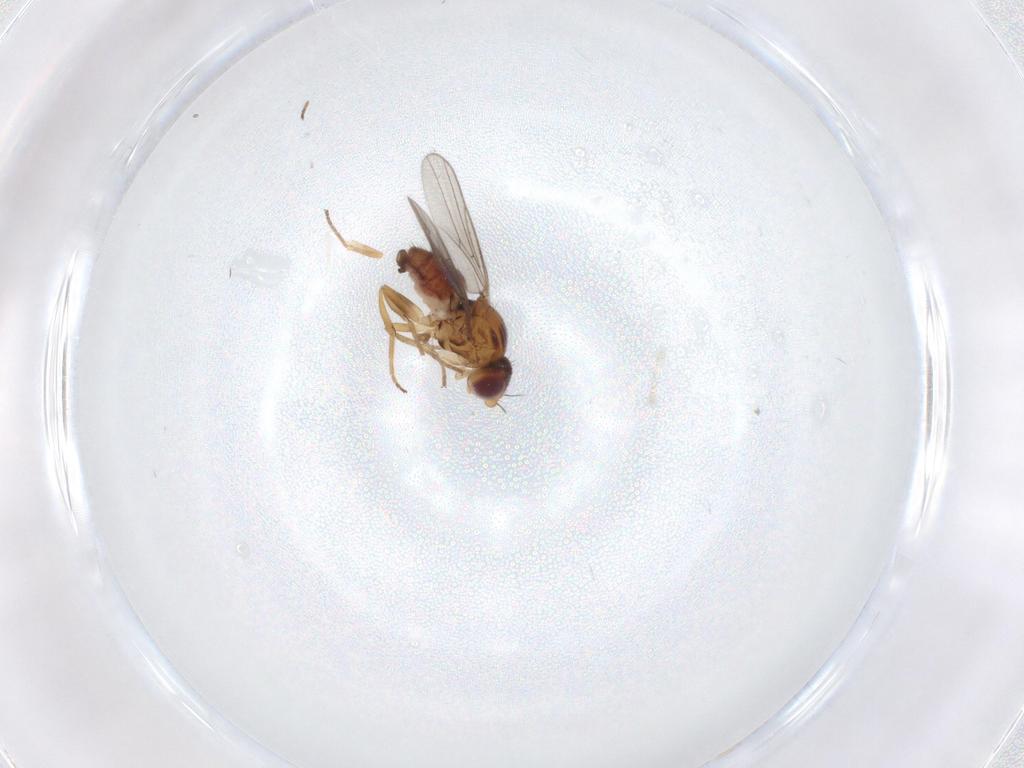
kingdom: Animalia
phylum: Arthropoda
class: Insecta
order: Diptera
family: Chloropidae
